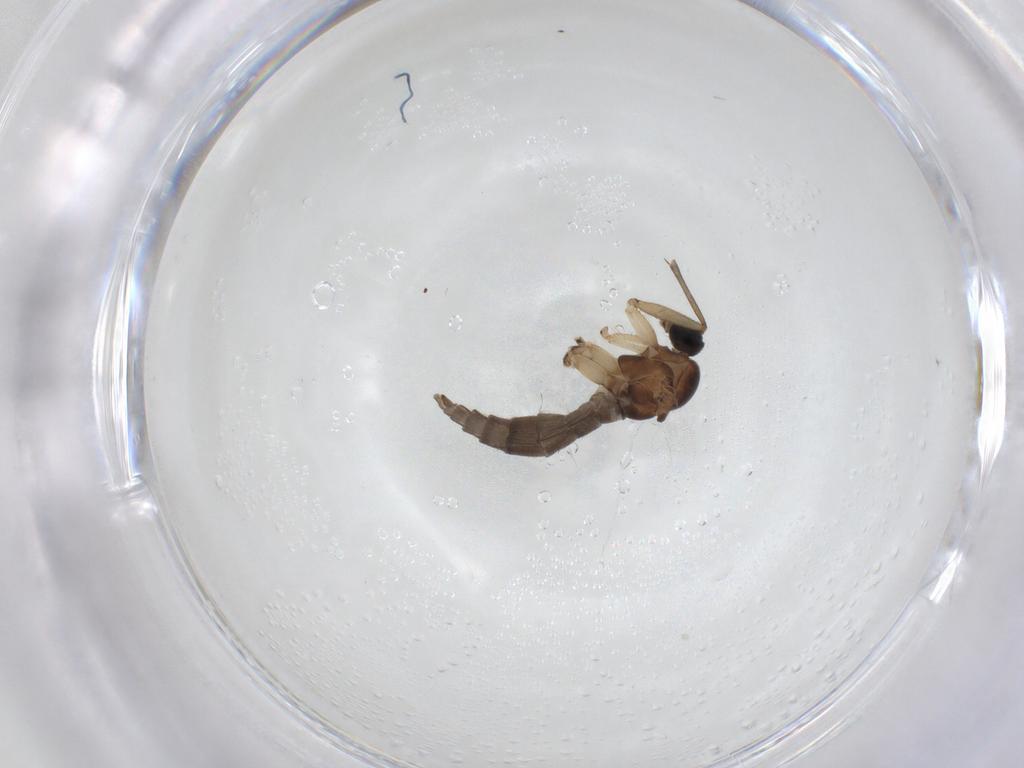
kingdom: Animalia
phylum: Arthropoda
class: Insecta
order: Diptera
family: Sciaridae
